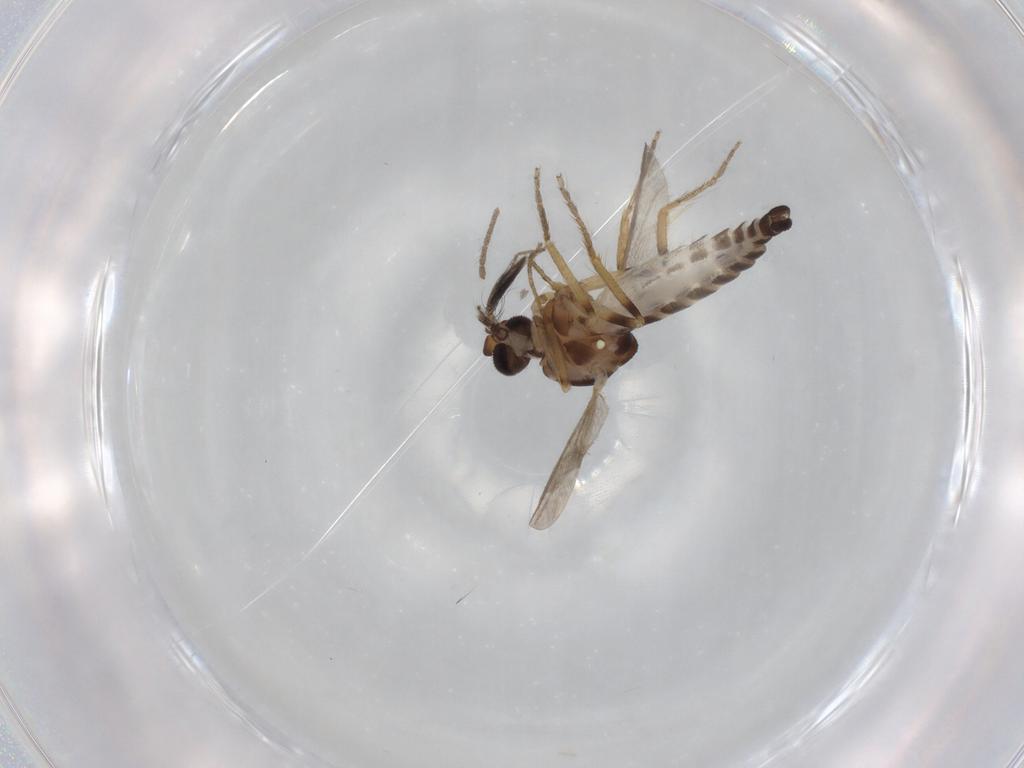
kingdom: Animalia
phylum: Arthropoda
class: Insecta
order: Diptera
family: Ceratopogonidae
